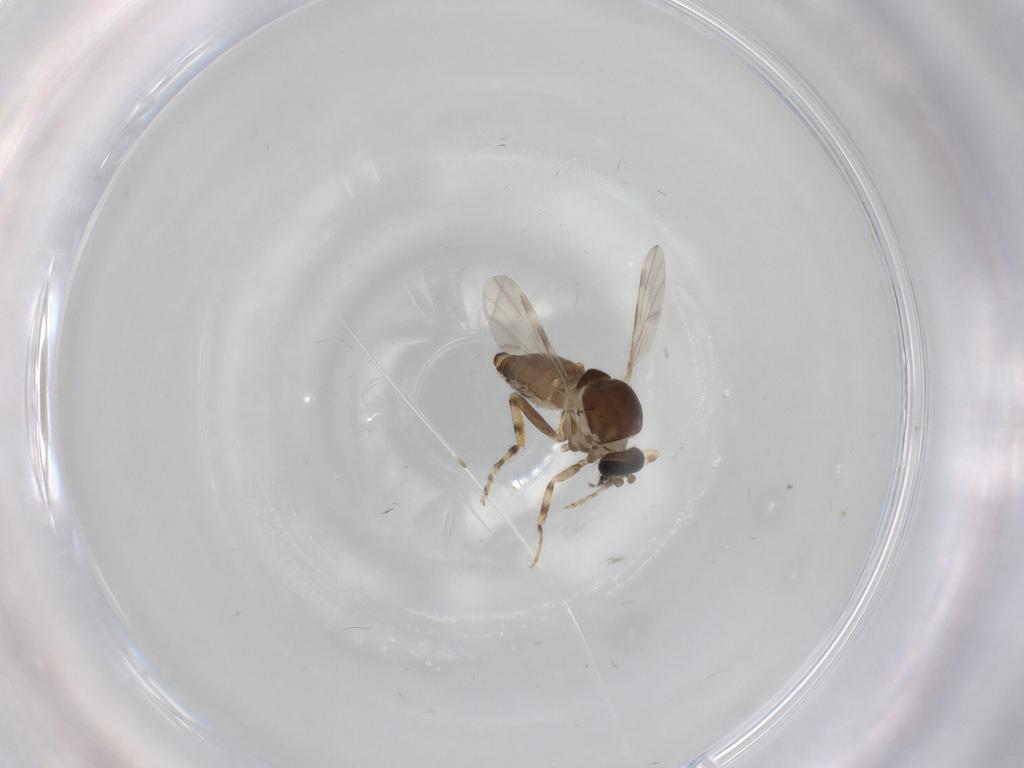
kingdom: Animalia
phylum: Arthropoda
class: Insecta
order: Diptera
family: Ceratopogonidae
